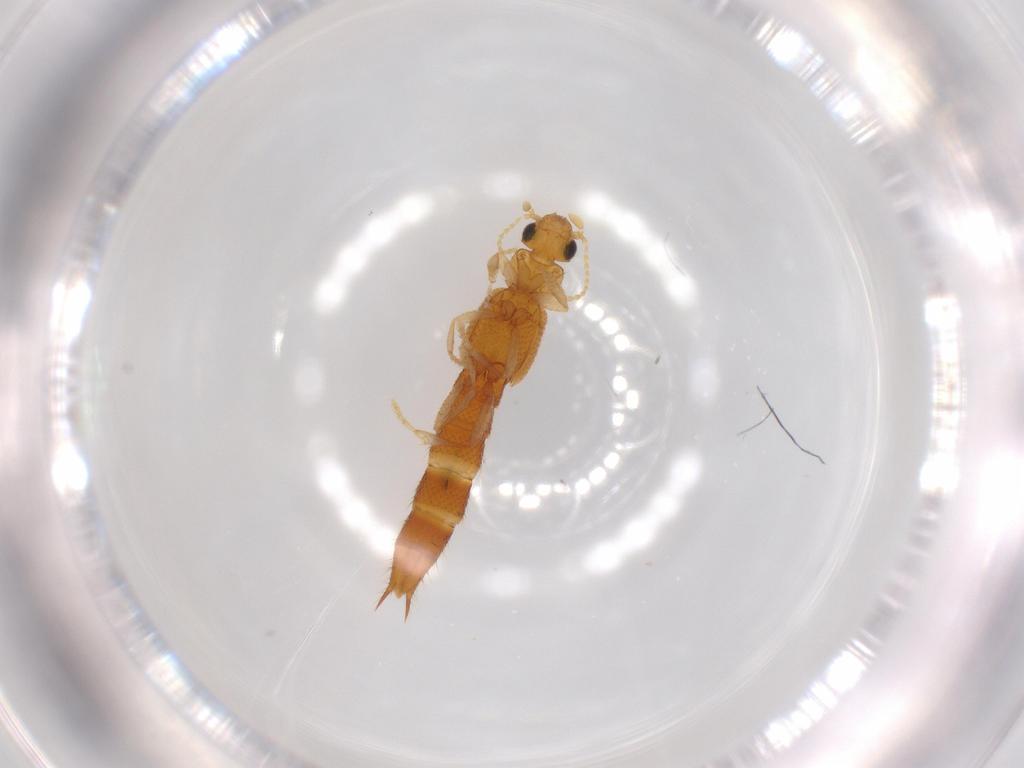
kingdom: Animalia
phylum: Arthropoda
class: Insecta
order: Coleoptera
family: Staphylinidae
